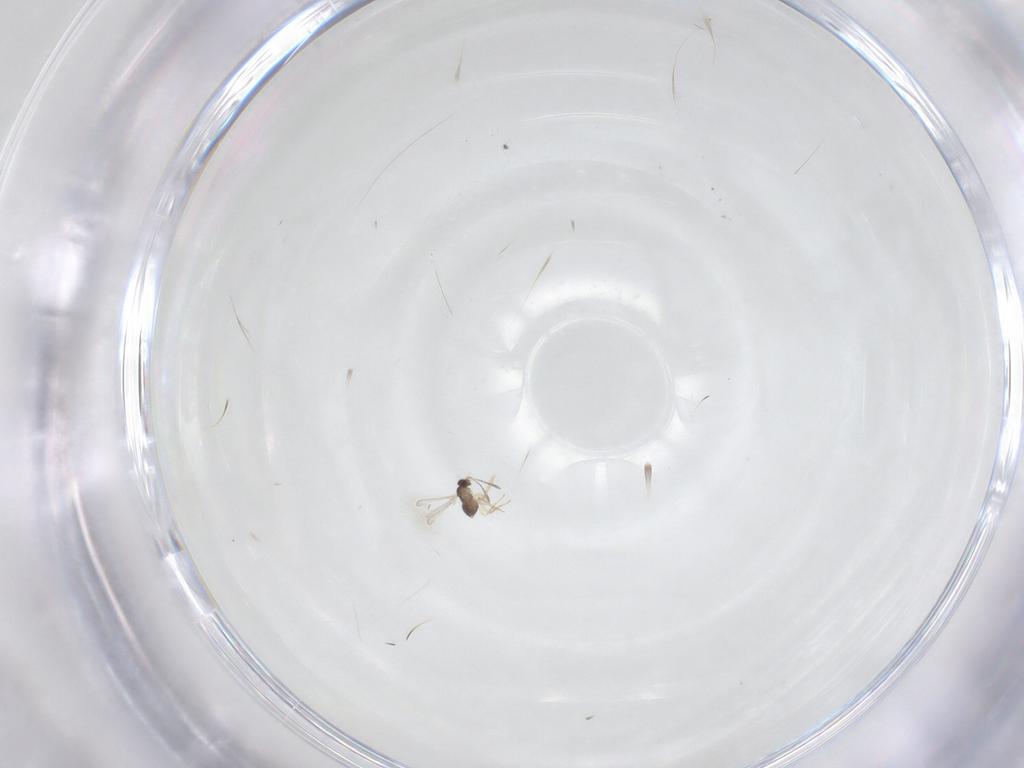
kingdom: Animalia
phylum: Arthropoda
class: Insecta
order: Hymenoptera
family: Mymaridae
